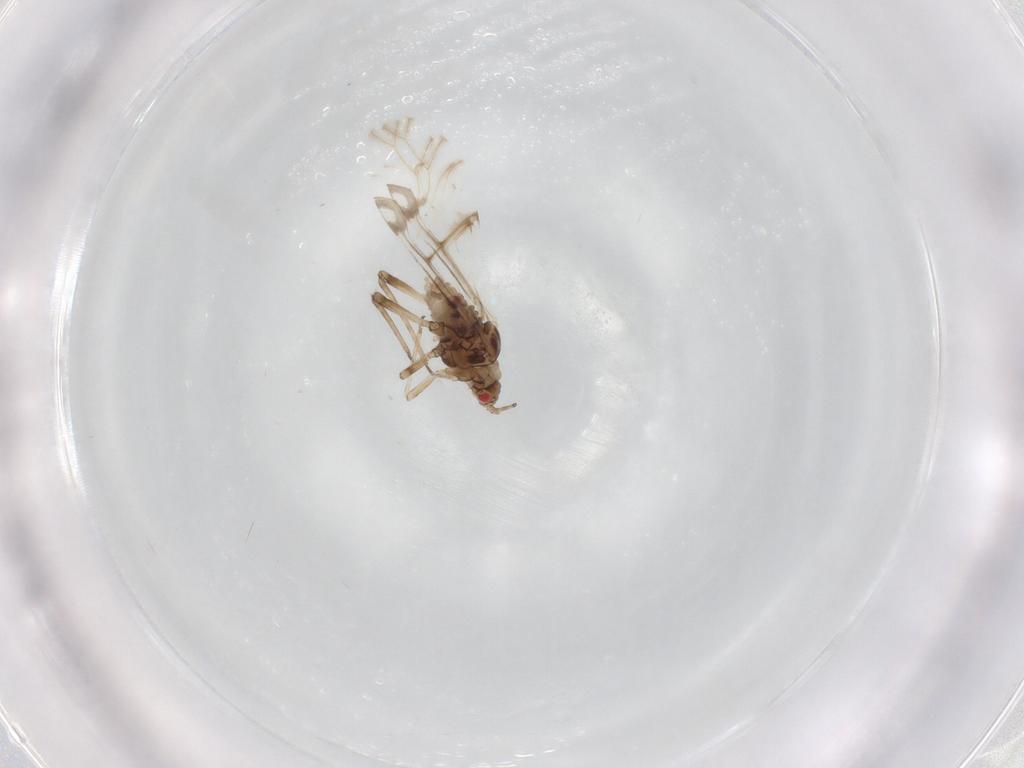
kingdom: Animalia
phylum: Arthropoda
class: Insecta
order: Hemiptera
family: Aphididae
